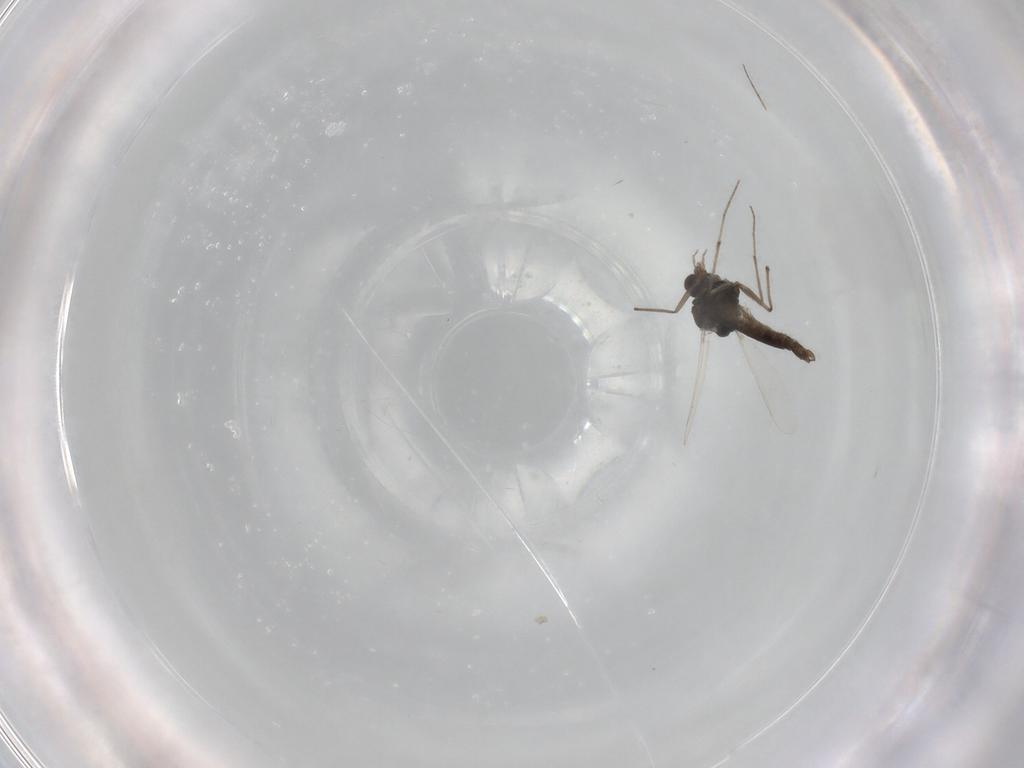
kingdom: Animalia
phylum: Arthropoda
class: Insecta
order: Diptera
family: Chironomidae
